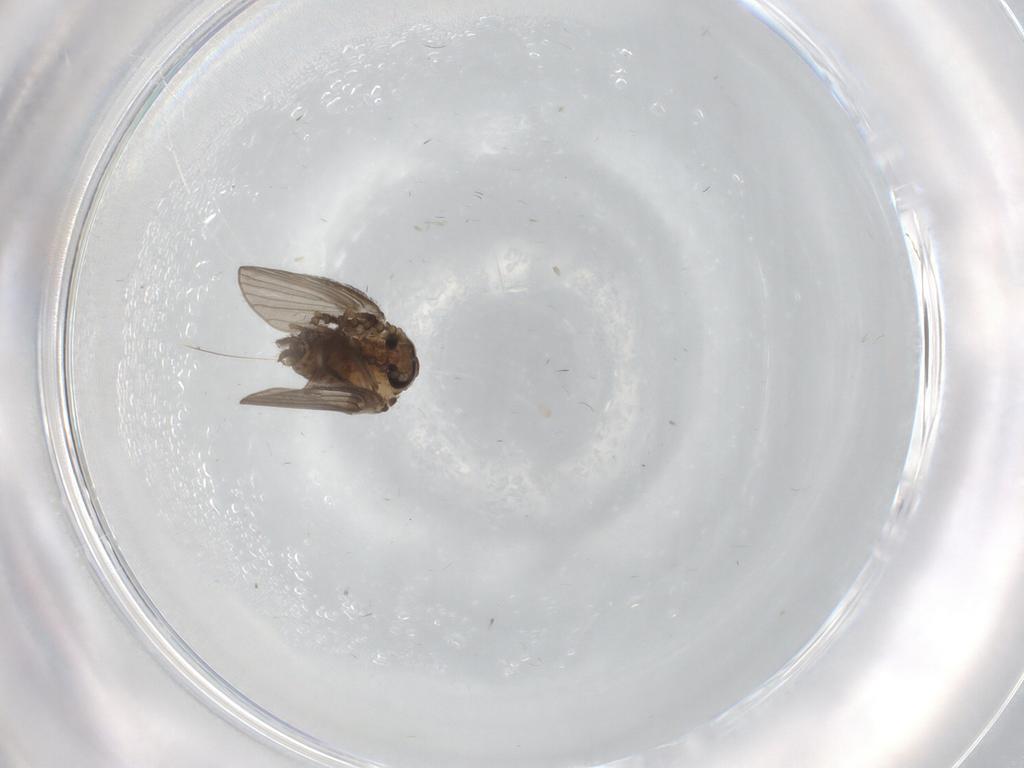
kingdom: Animalia
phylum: Arthropoda
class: Insecta
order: Diptera
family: Psychodidae
